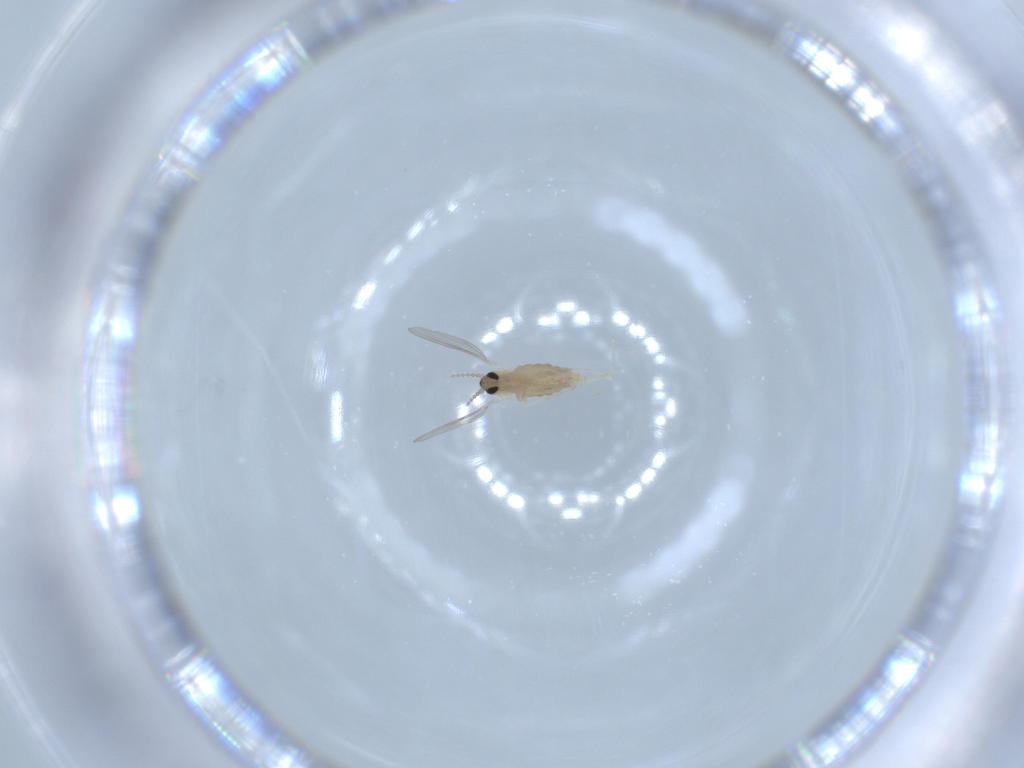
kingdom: Animalia
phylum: Arthropoda
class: Insecta
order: Diptera
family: Cecidomyiidae
